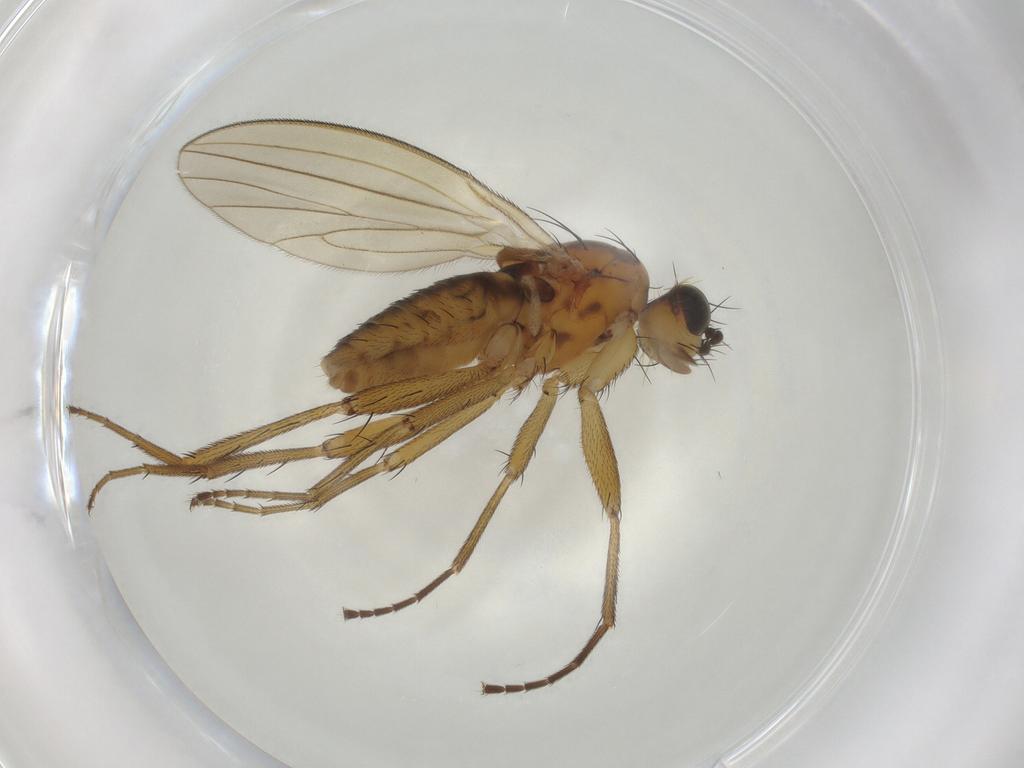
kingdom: Animalia
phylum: Arthropoda
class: Insecta
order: Diptera
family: Lonchopteridae
